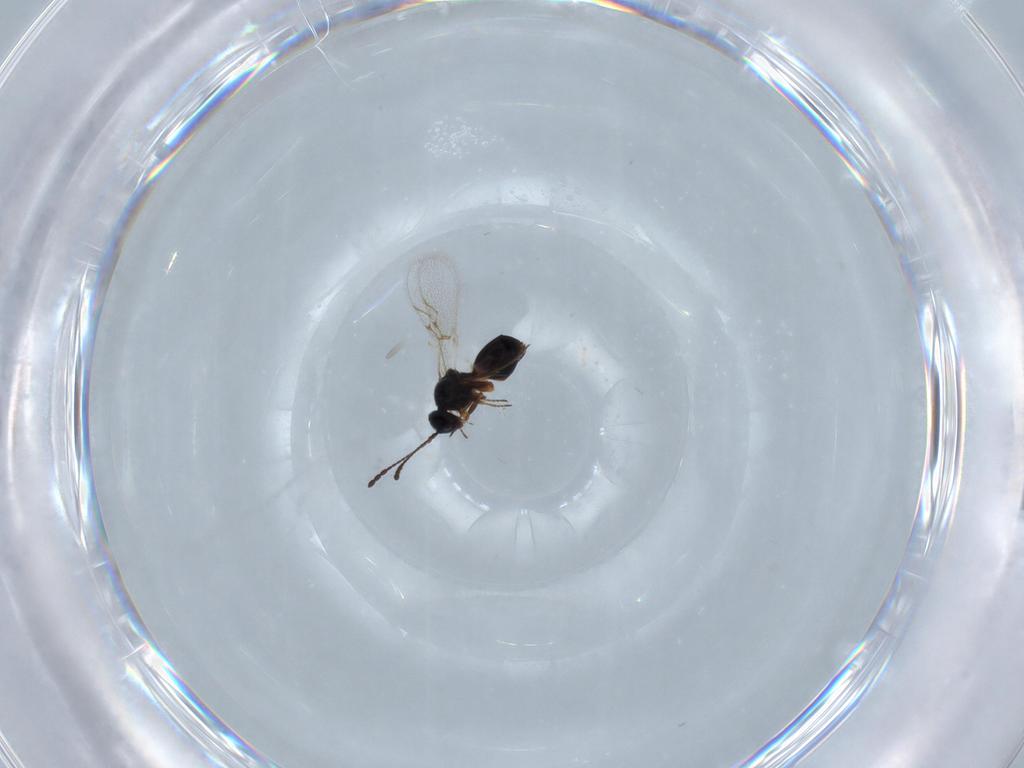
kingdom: Animalia
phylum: Arthropoda
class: Insecta
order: Hymenoptera
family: Figitidae
